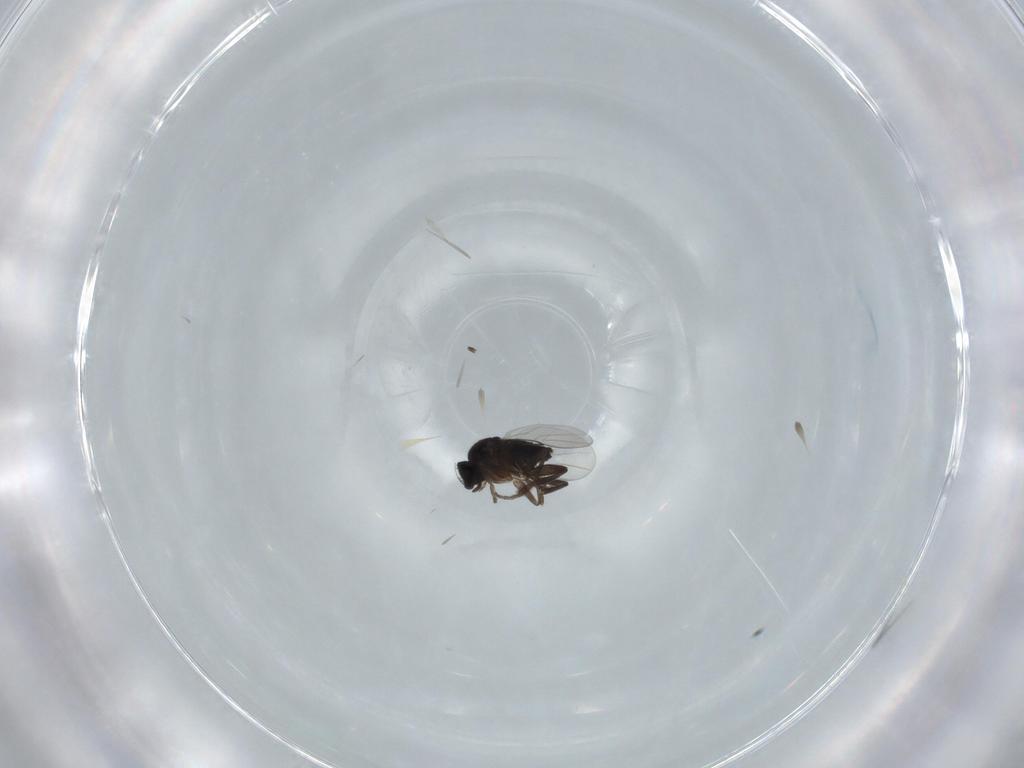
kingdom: Animalia
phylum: Arthropoda
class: Insecta
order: Diptera
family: Phoridae
